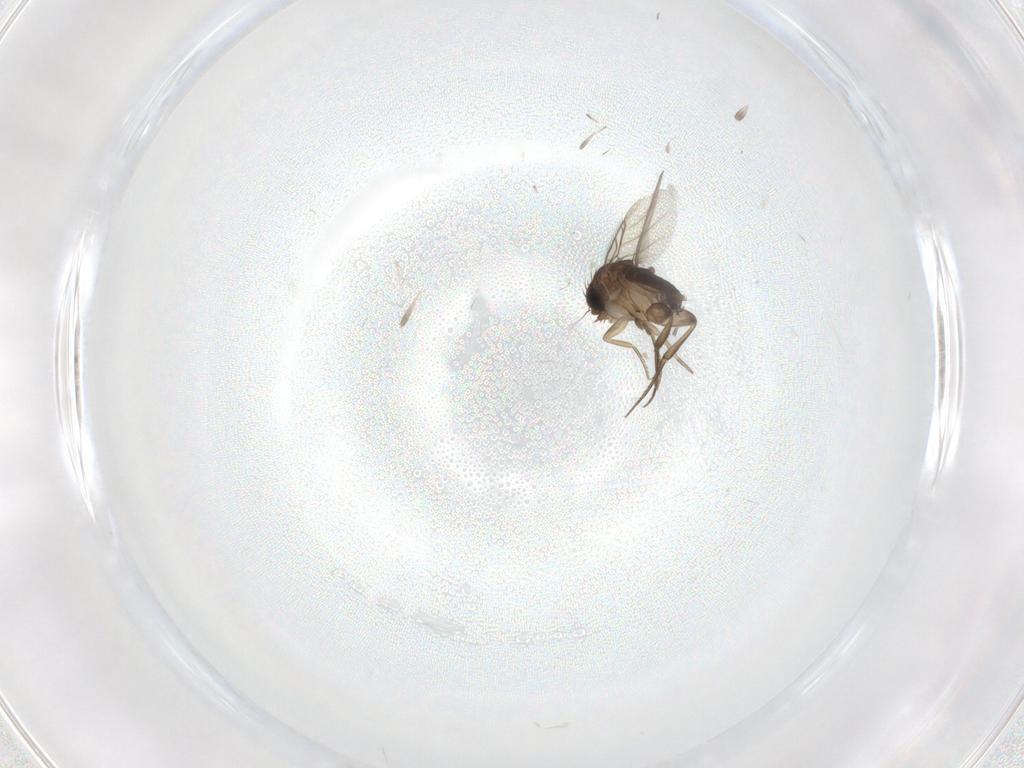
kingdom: Animalia
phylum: Arthropoda
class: Insecta
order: Diptera
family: Phoridae
